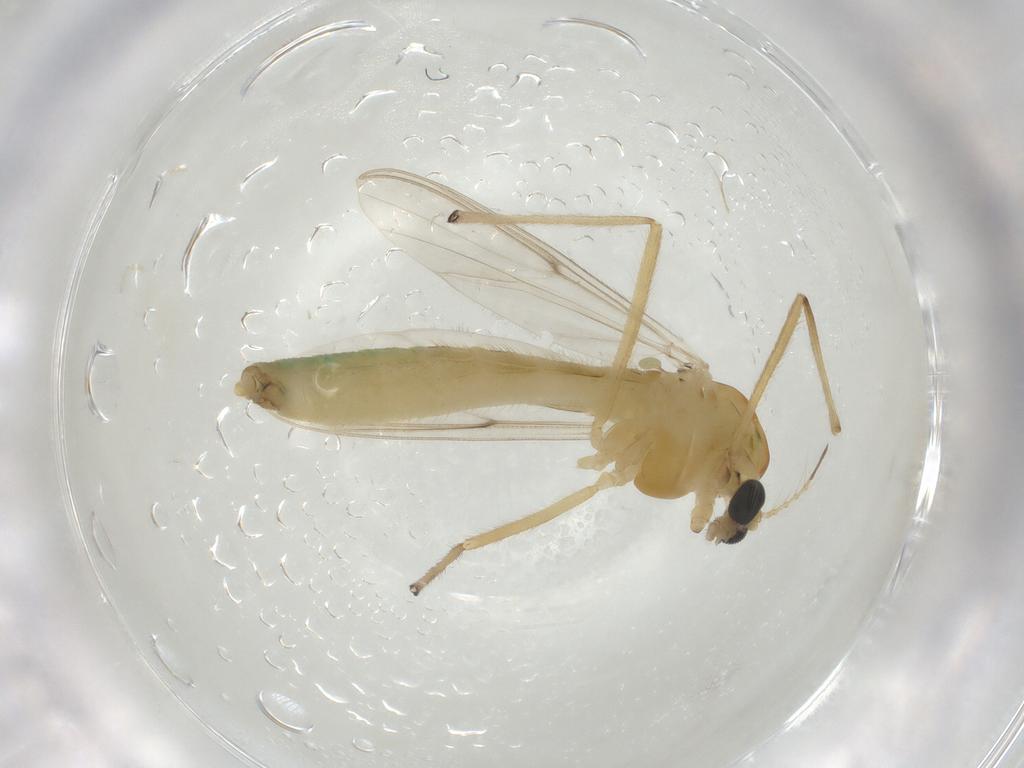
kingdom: Animalia
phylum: Arthropoda
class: Insecta
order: Diptera
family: Chironomidae
